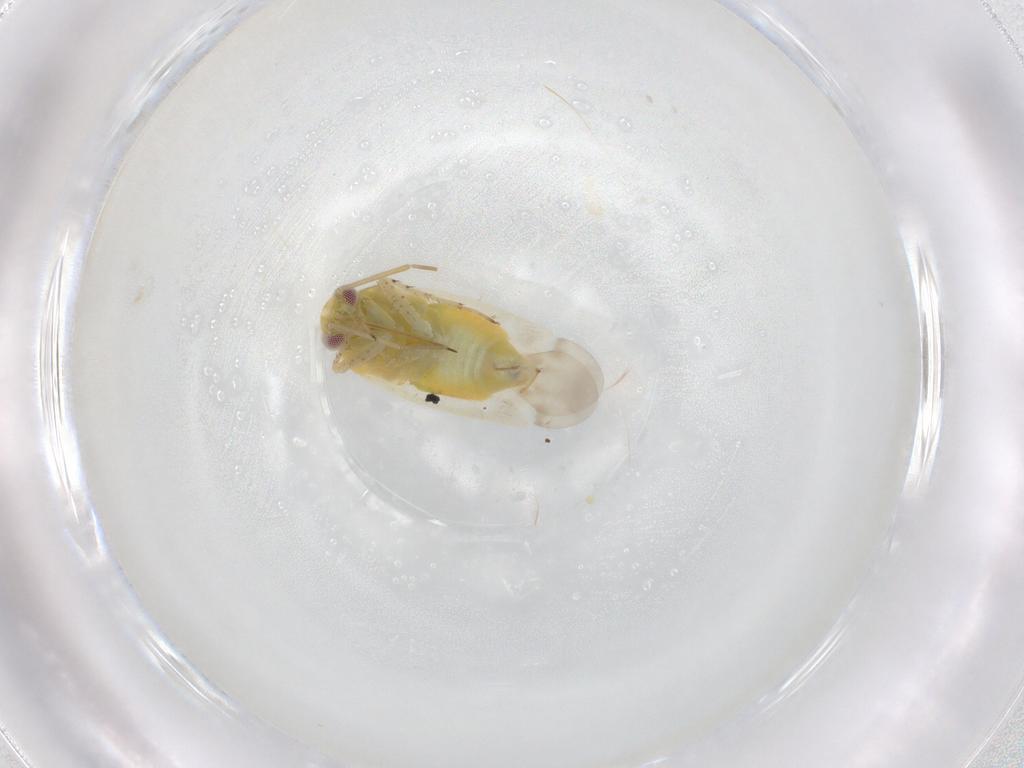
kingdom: Animalia
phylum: Arthropoda
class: Insecta
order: Hemiptera
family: Miridae
